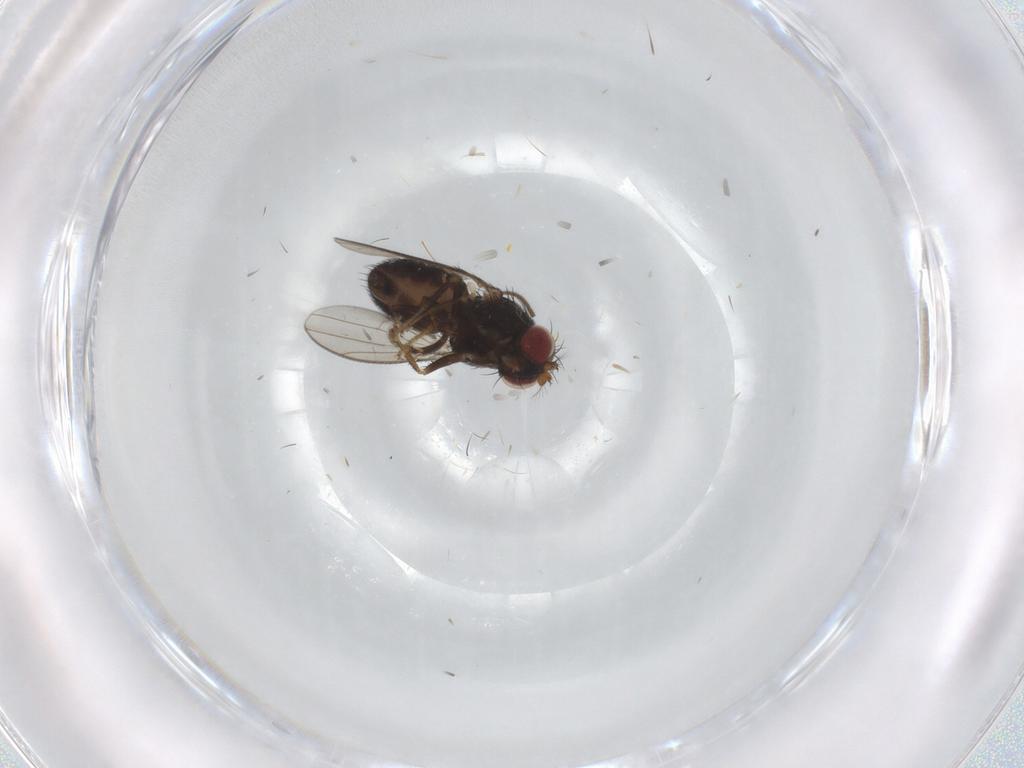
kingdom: Animalia
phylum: Arthropoda
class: Insecta
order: Diptera
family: Ephydridae
